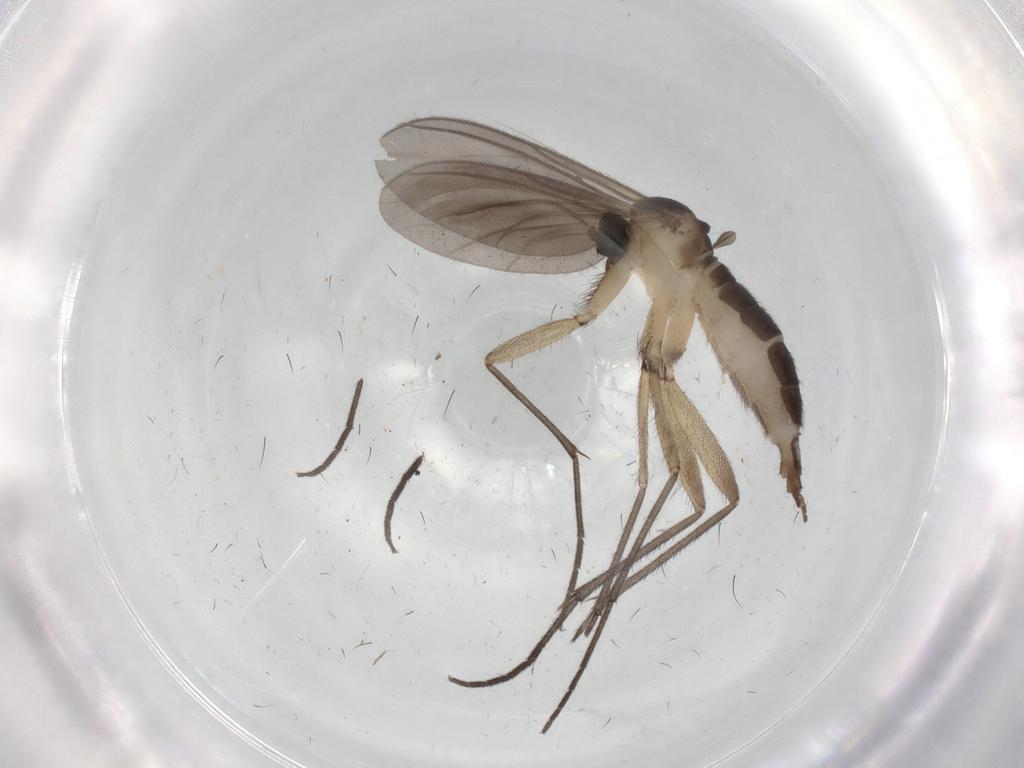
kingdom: Animalia
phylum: Arthropoda
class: Insecta
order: Diptera
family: Sciaridae
